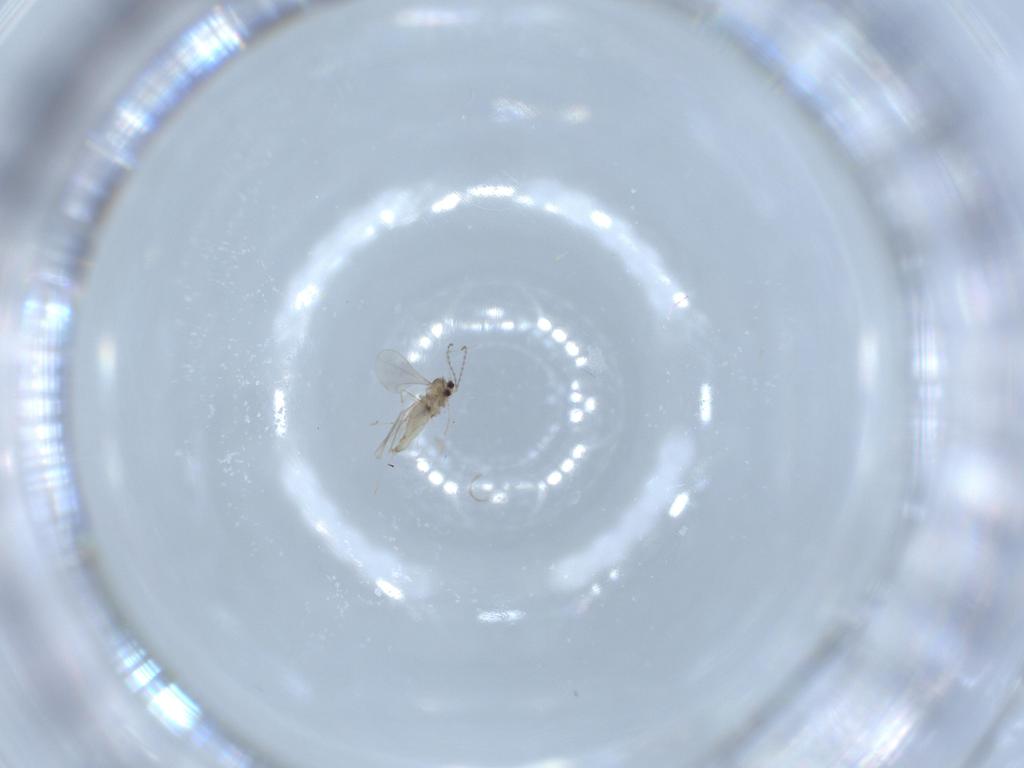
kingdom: Animalia
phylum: Arthropoda
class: Insecta
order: Diptera
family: Cecidomyiidae
